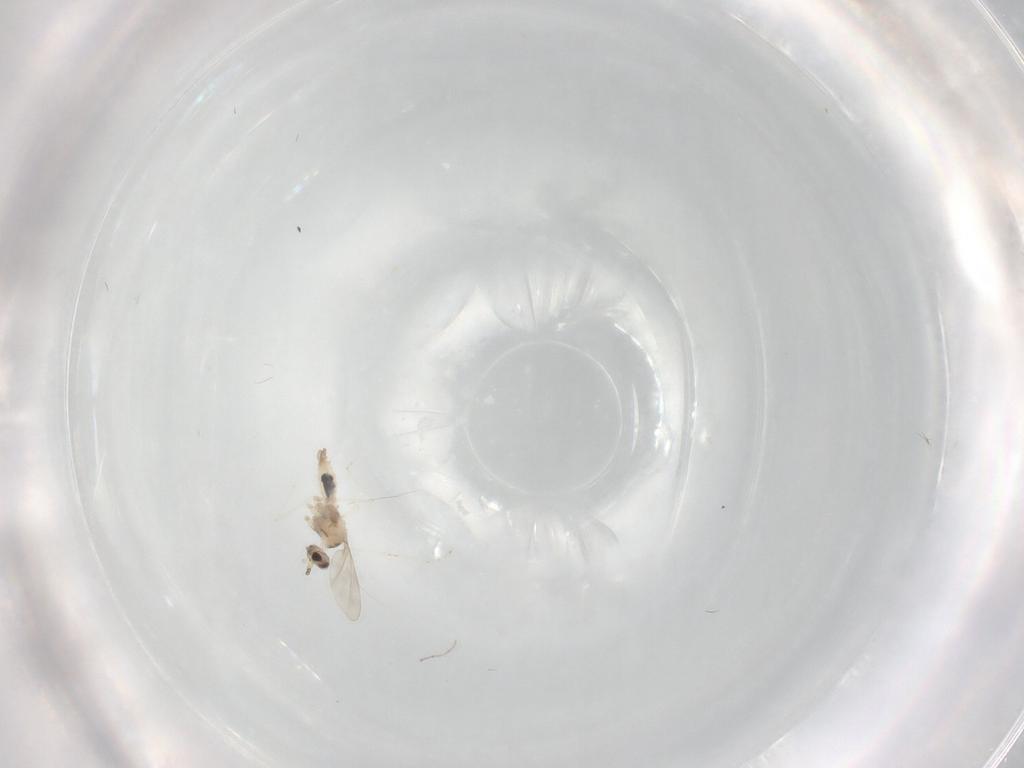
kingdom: Animalia
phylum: Arthropoda
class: Insecta
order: Diptera
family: Cecidomyiidae
